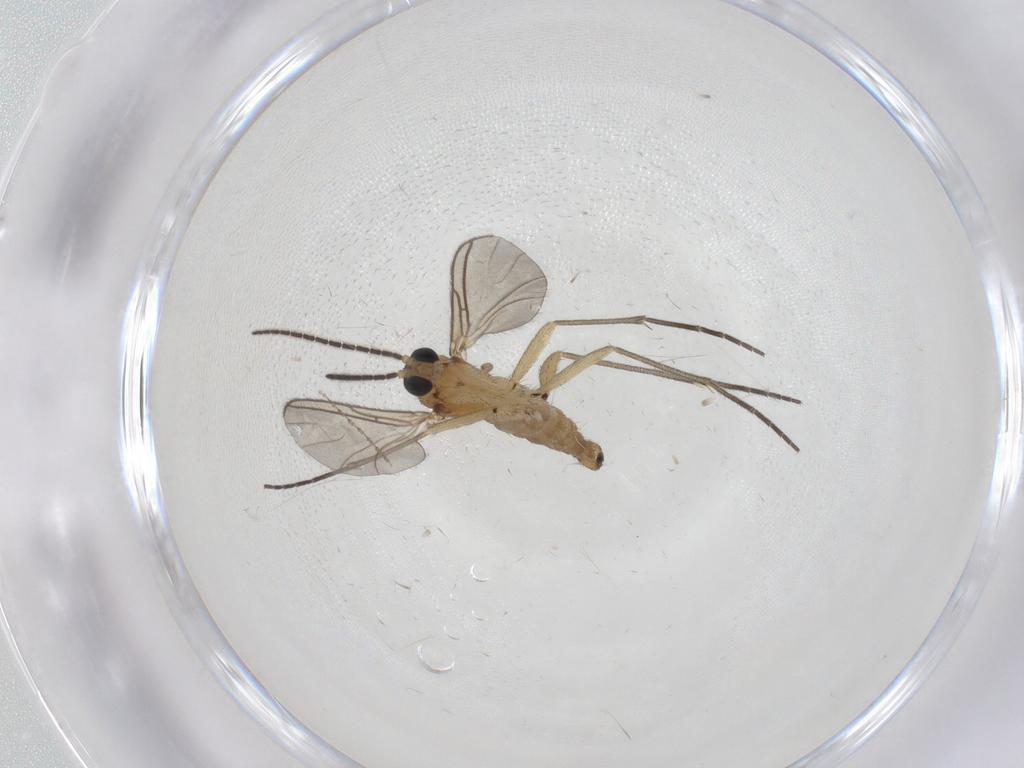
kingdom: Animalia
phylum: Arthropoda
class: Insecta
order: Diptera
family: Sciaridae
